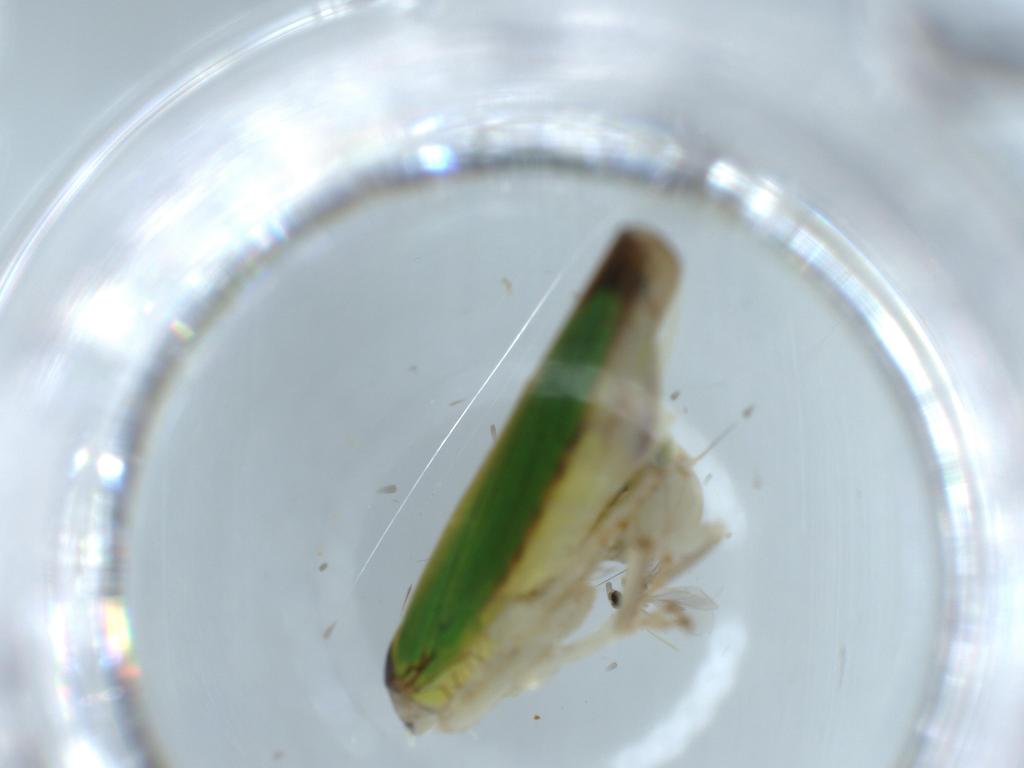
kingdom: Animalia
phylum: Arthropoda
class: Insecta
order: Hemiptera
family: Cicadellidae
